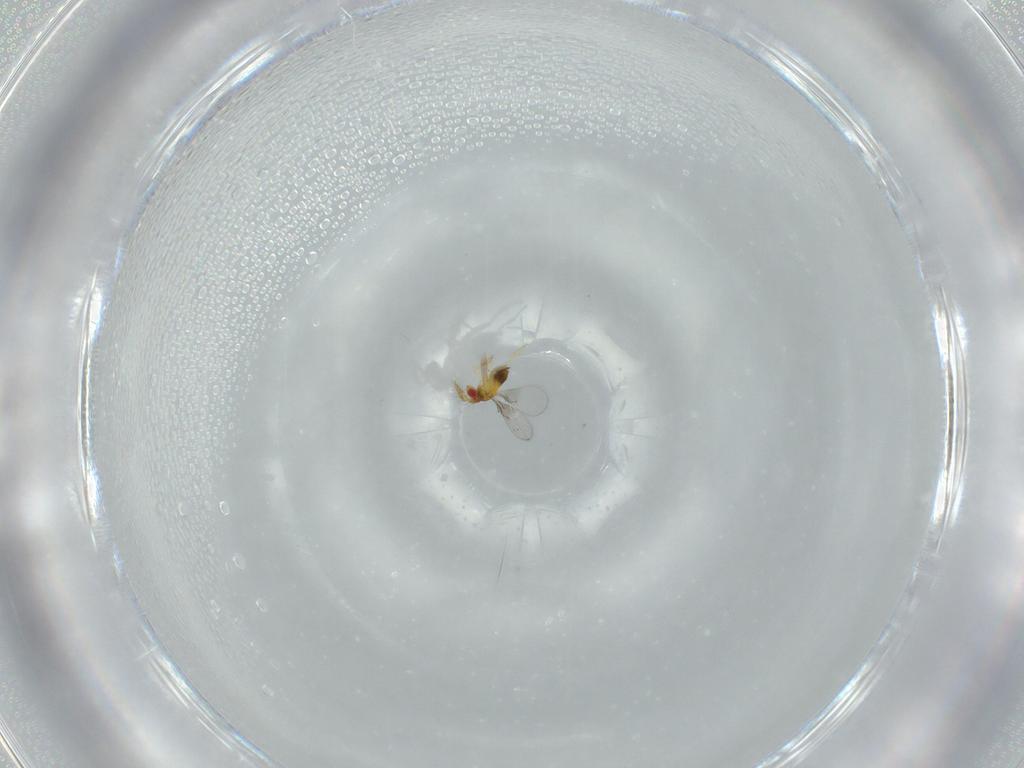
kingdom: Animalia
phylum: Arthropoda
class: Insecta
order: Hymenoptera
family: Trichogrammatidae
